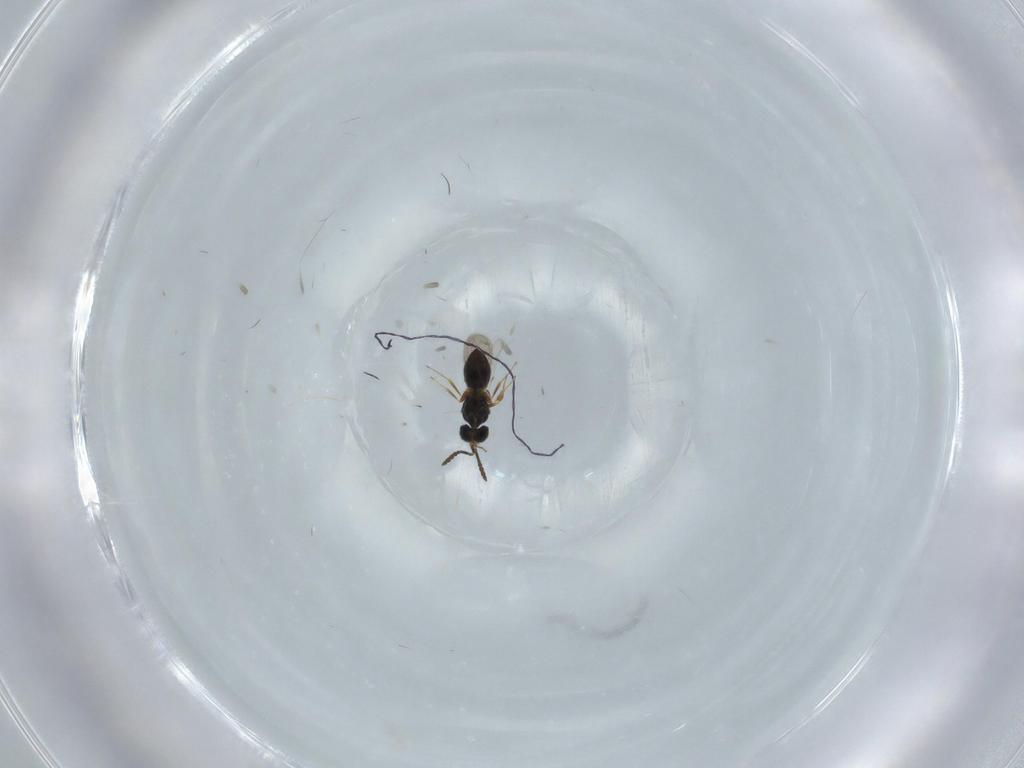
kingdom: Animalia
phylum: Arthropoda
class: Insecta
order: Hymenoptera
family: Scelionidae
